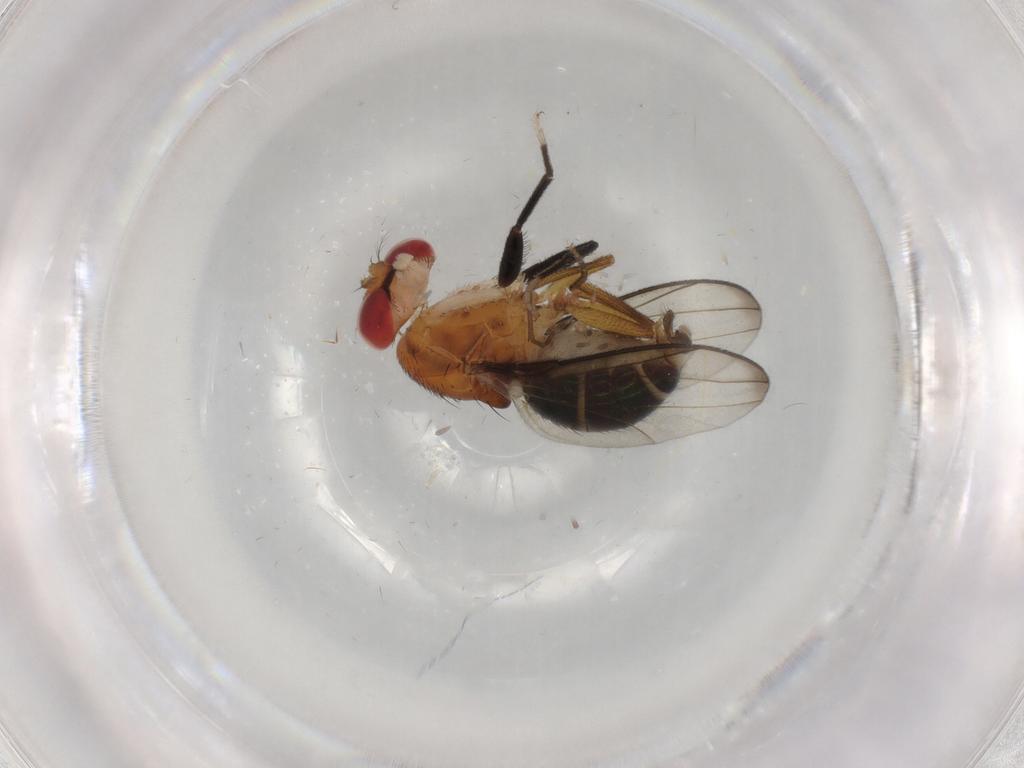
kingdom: Animalia
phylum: Arthropoda
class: Insecta
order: Diptera
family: Drosophilidae
